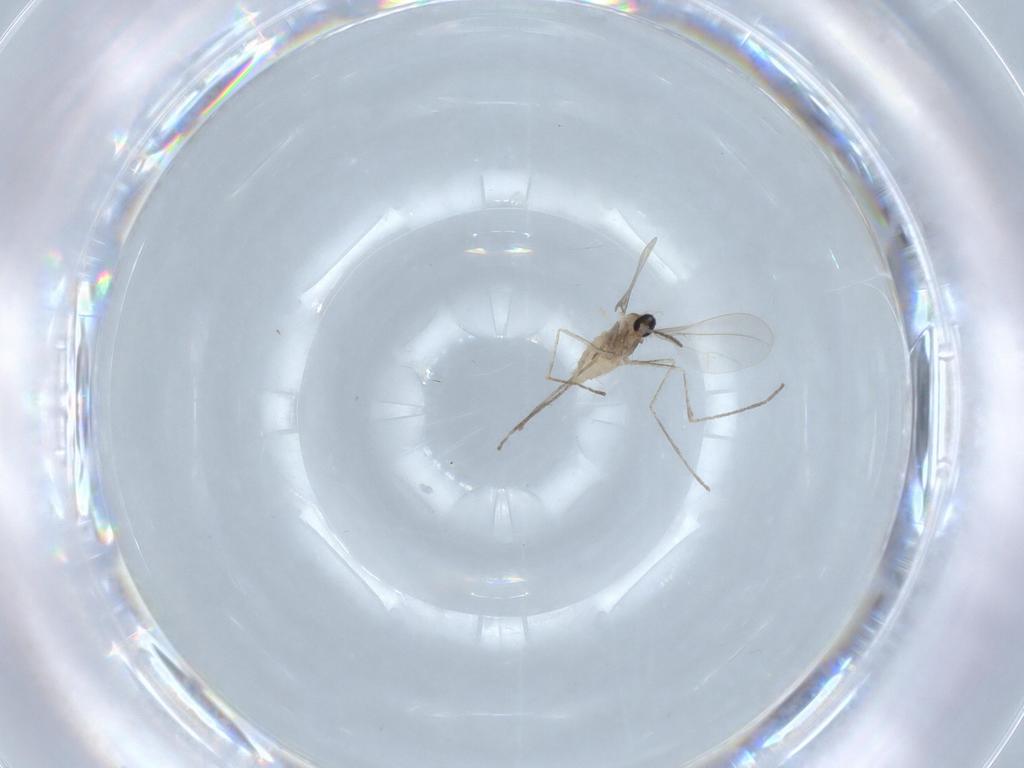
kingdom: Animalia
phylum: Arthropoda
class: Insecta
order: Diptera
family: Cecidomyiidae
